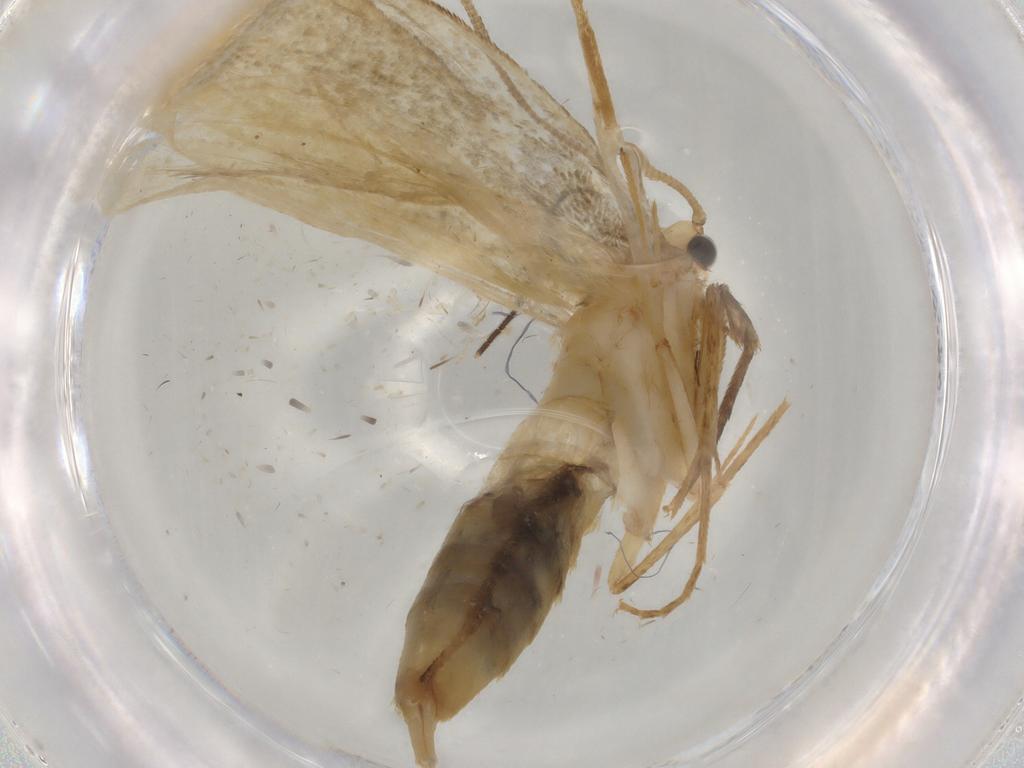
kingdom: Animalia
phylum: Arthropoda
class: Insecta
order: Lepidoptera
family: Tineidae
